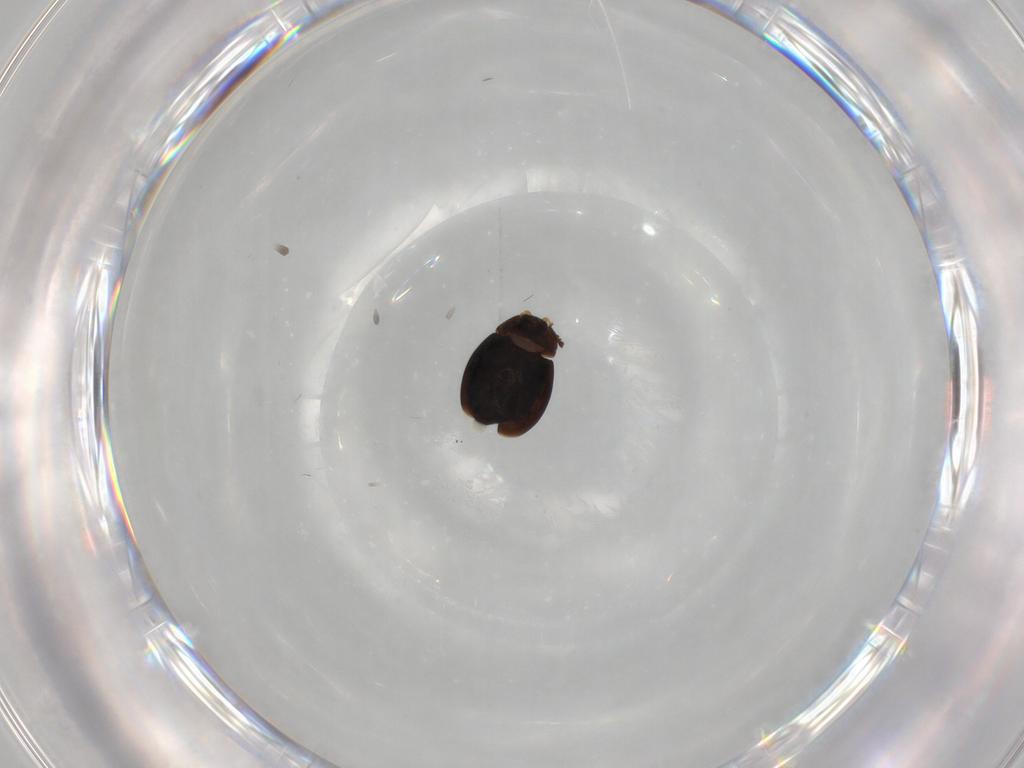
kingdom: Animalia
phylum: Arthropoda
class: Insecta
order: Coleoptera
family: Corylophidae
